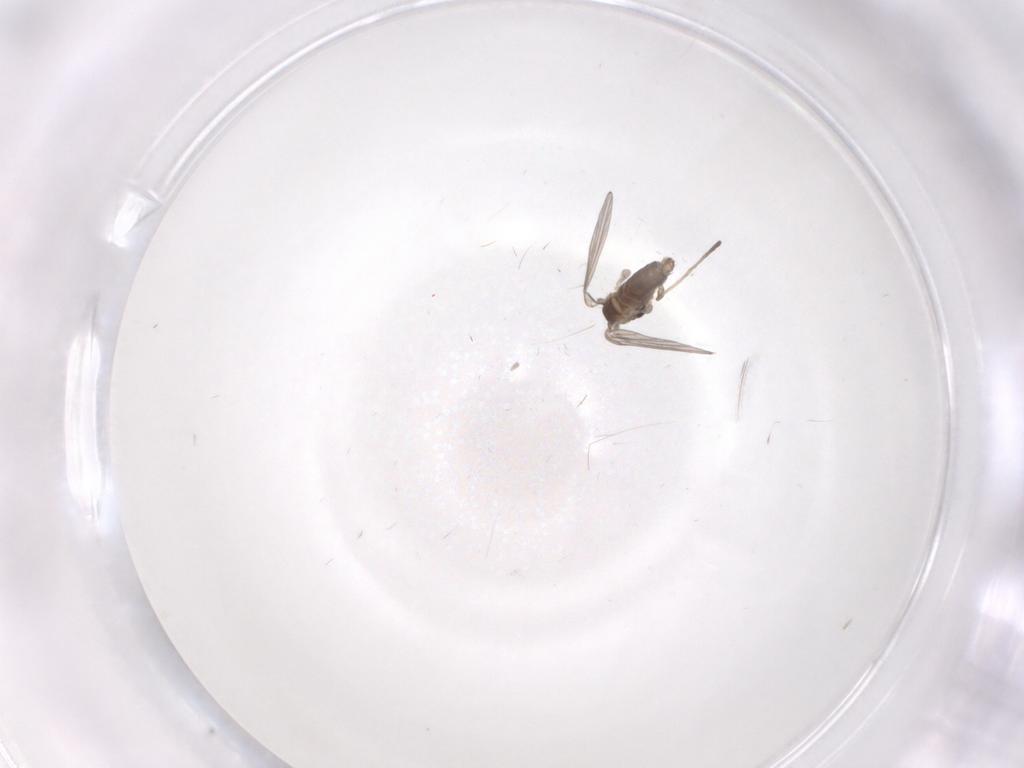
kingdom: Animalia
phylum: Arthropoda
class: Insecta
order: Diptera
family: Psychodidae
